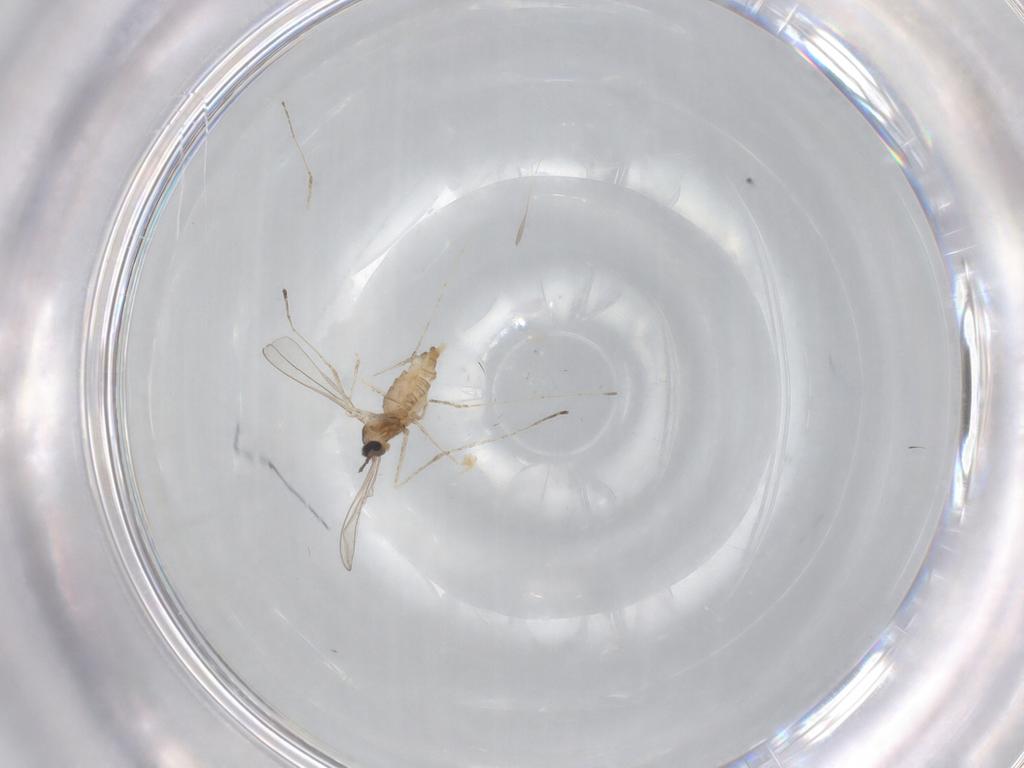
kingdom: Animalia
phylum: Arthropoda
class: Insecta
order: Diptera
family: Cecidomyiidae
